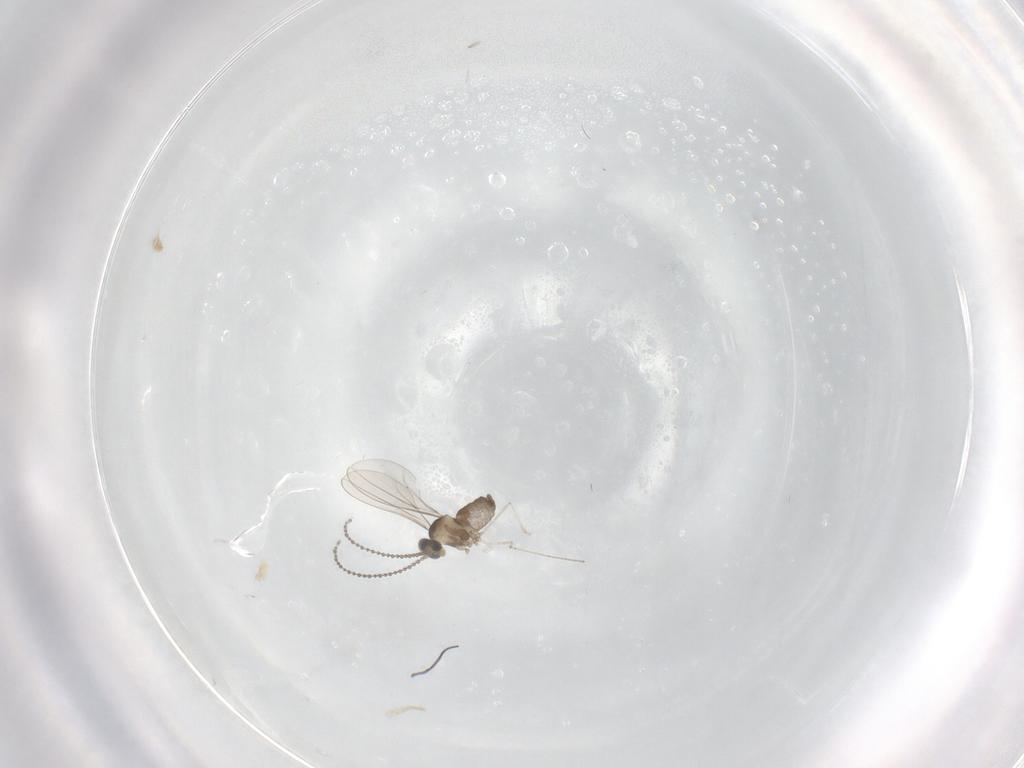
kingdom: Animalia
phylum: Arthropoda
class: Insecta
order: Diptera
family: Cecidomyiidae
